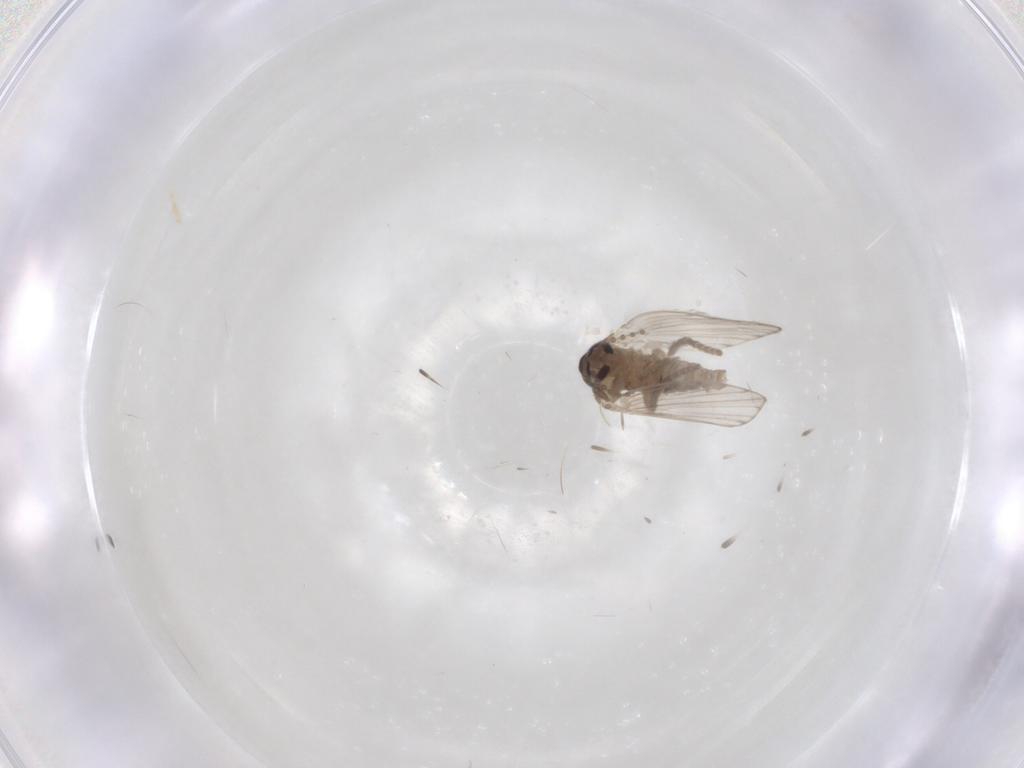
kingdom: Animalia
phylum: Arthropoda
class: Insecta
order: Diptera
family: Psychodidae
